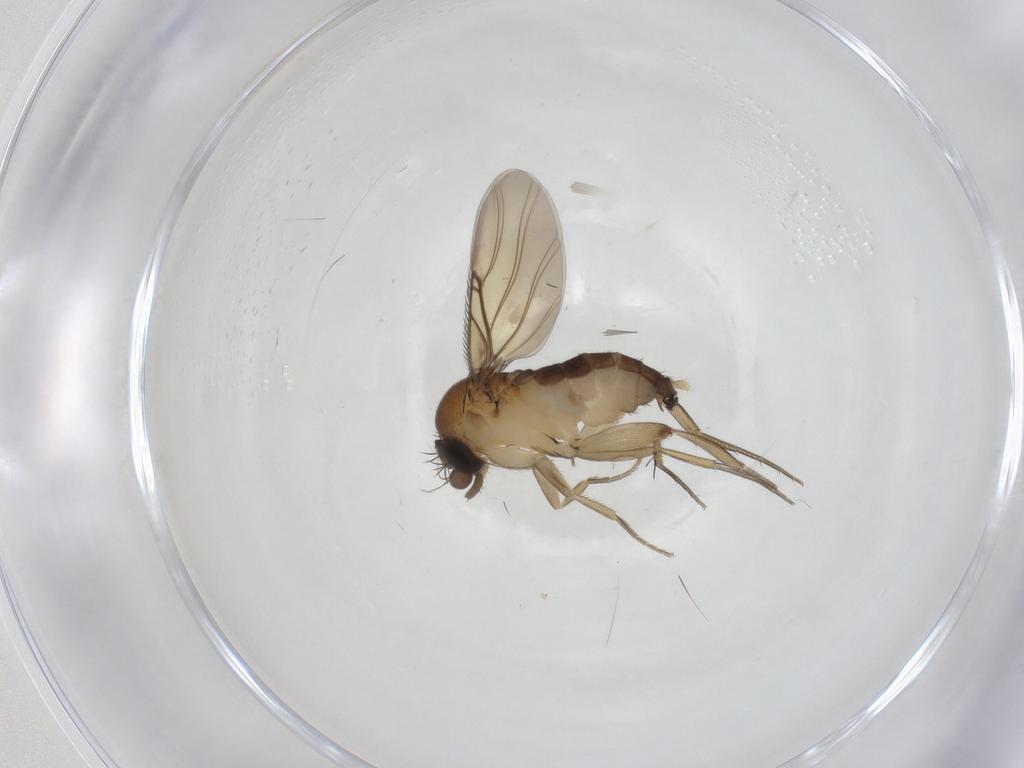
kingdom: Animalia
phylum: Arthropoda
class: Insecta
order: Diptera
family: Phoridae
